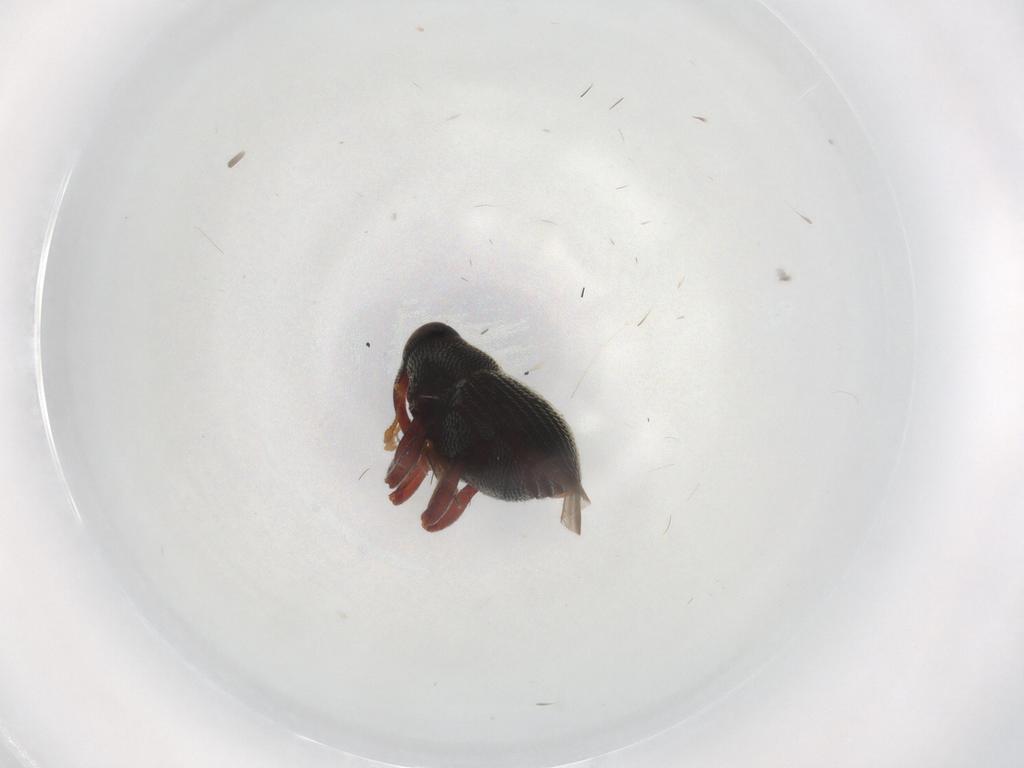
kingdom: Animalia
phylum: Arthropoda
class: Insecta
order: Coleoptera
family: Curculionidae
